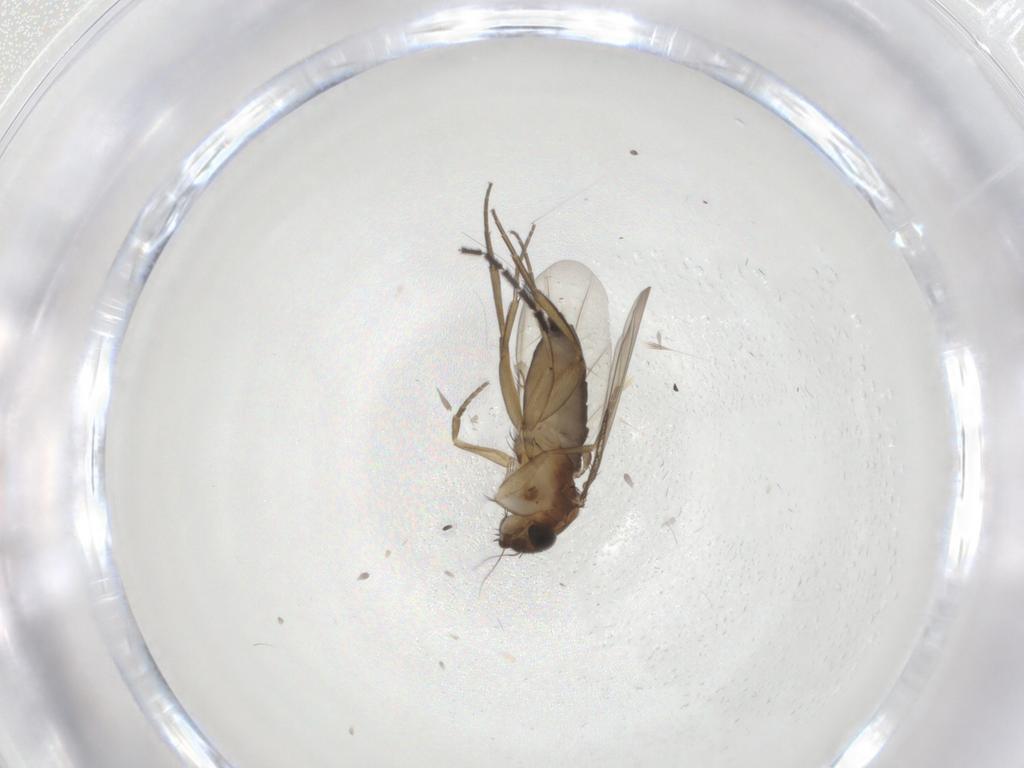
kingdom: Animalia
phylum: Arthropoda
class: Insecta
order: Diptera
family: Phoridae
